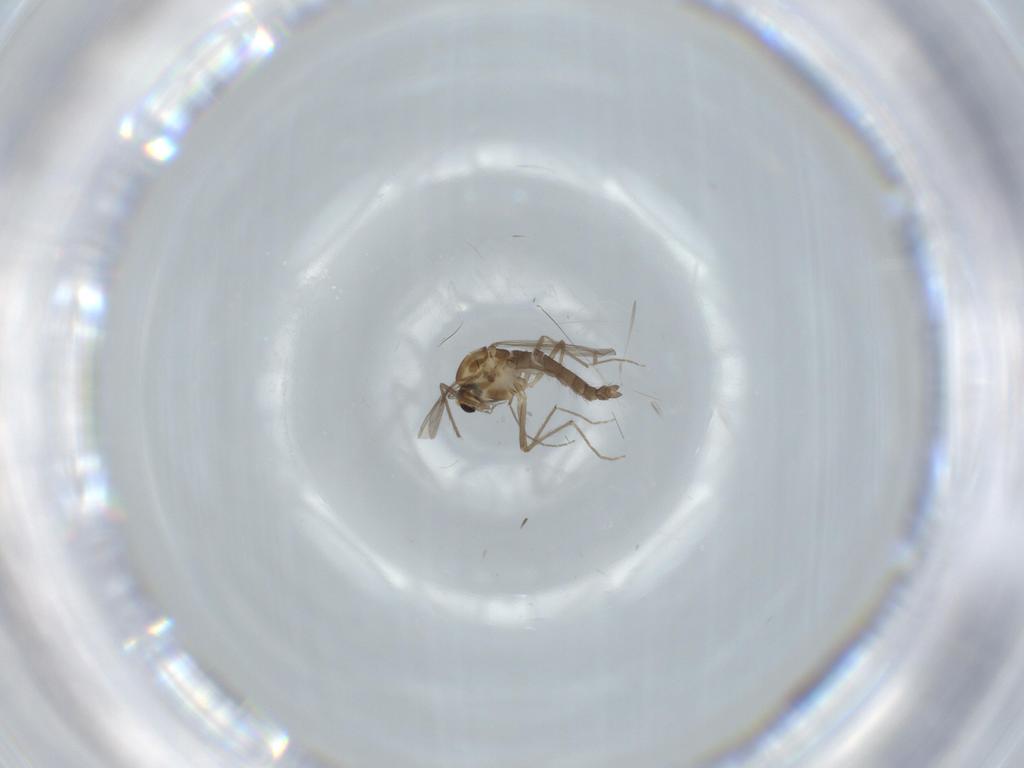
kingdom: Animalia
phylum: Arthropoda
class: Insecta
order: Diptera
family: Chironomidae
